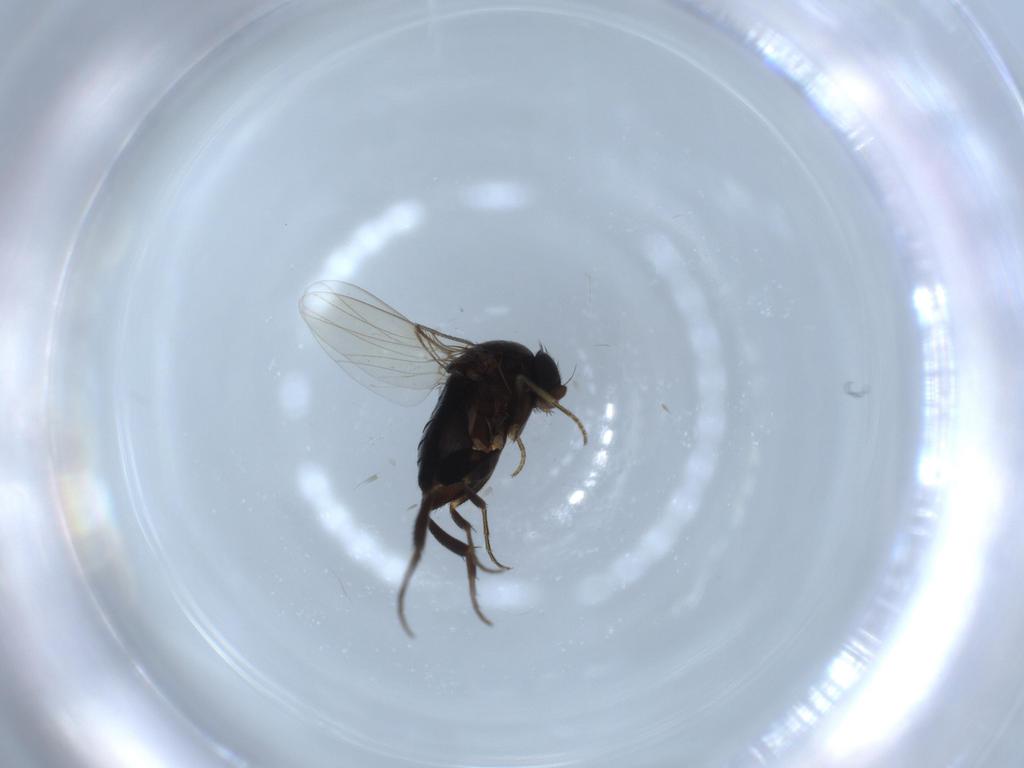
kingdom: Animalia
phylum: Arthropoda
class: Insecta
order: Diptera
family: Phoridae
